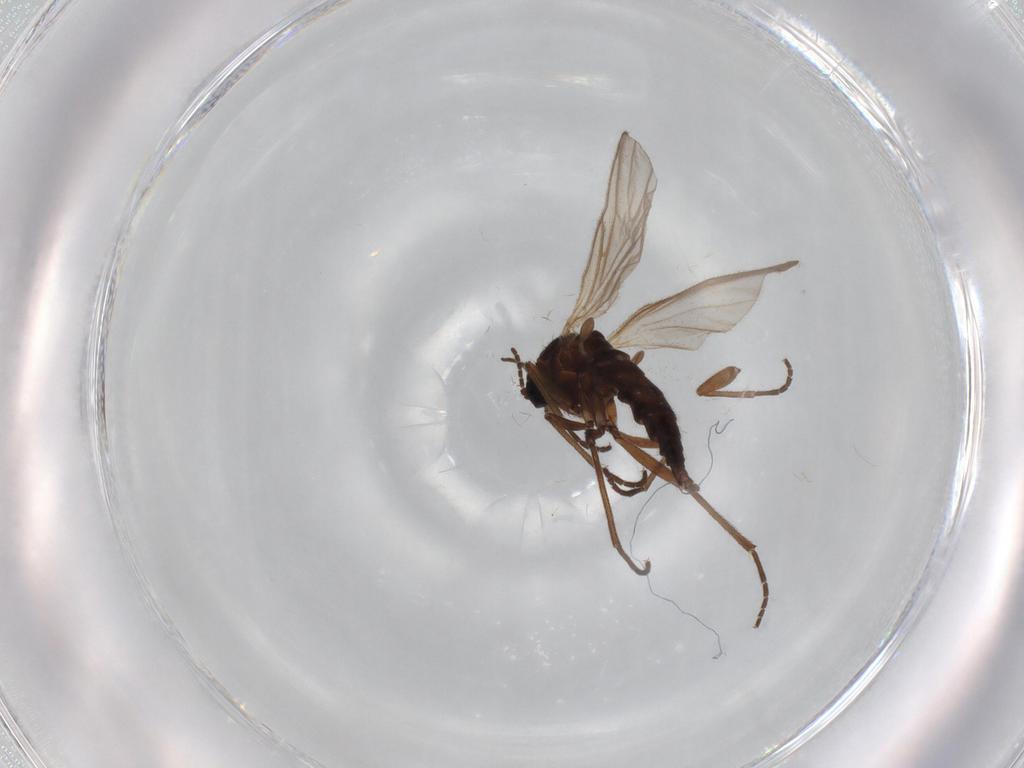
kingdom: Animalia
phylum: Arthropoda
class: Insecta
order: Diptera
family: Sciaridae
